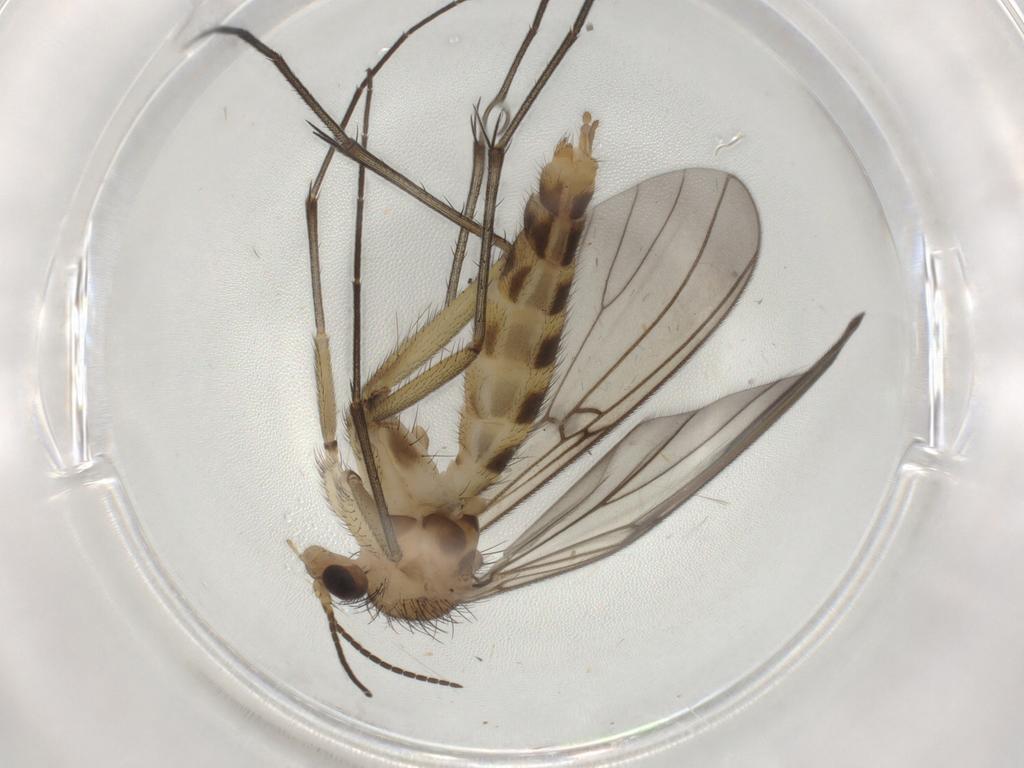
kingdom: Animalia
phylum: Arthropoda
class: Insecta
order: Diptera
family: Mycetophilidae
